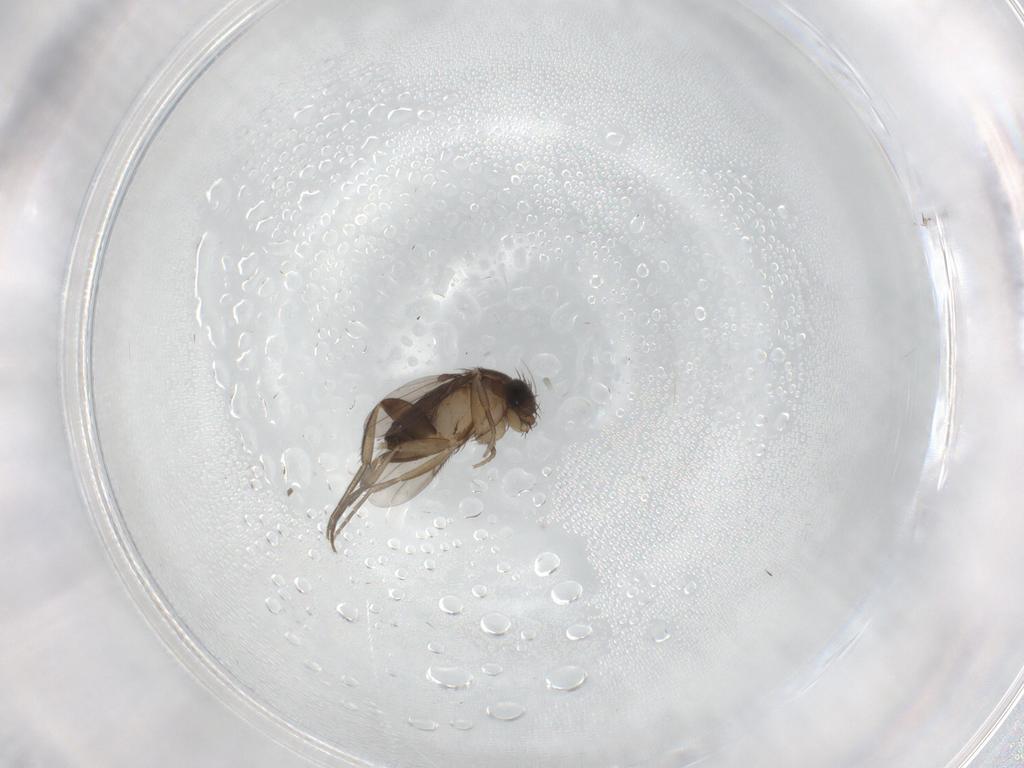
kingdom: Animalia
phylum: Arthropoda
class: Insecta
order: Diptera
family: Phoridae
